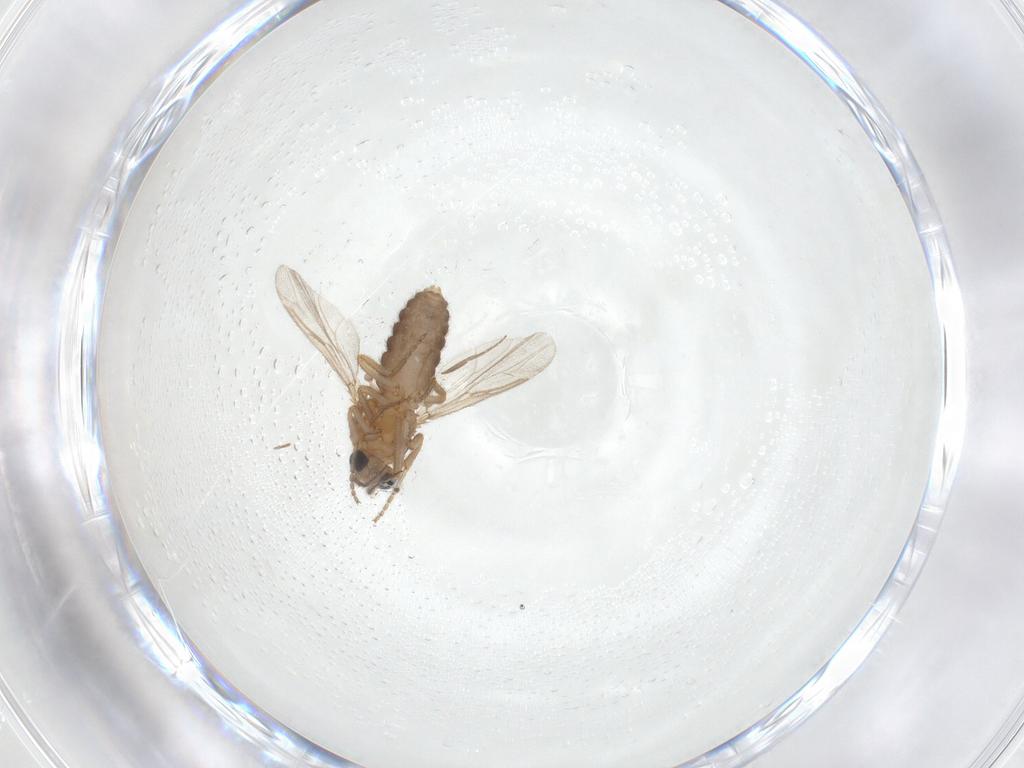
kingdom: Animalia
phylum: Arthropoda
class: Insecta
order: Diptera
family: Ceratopogonidae
